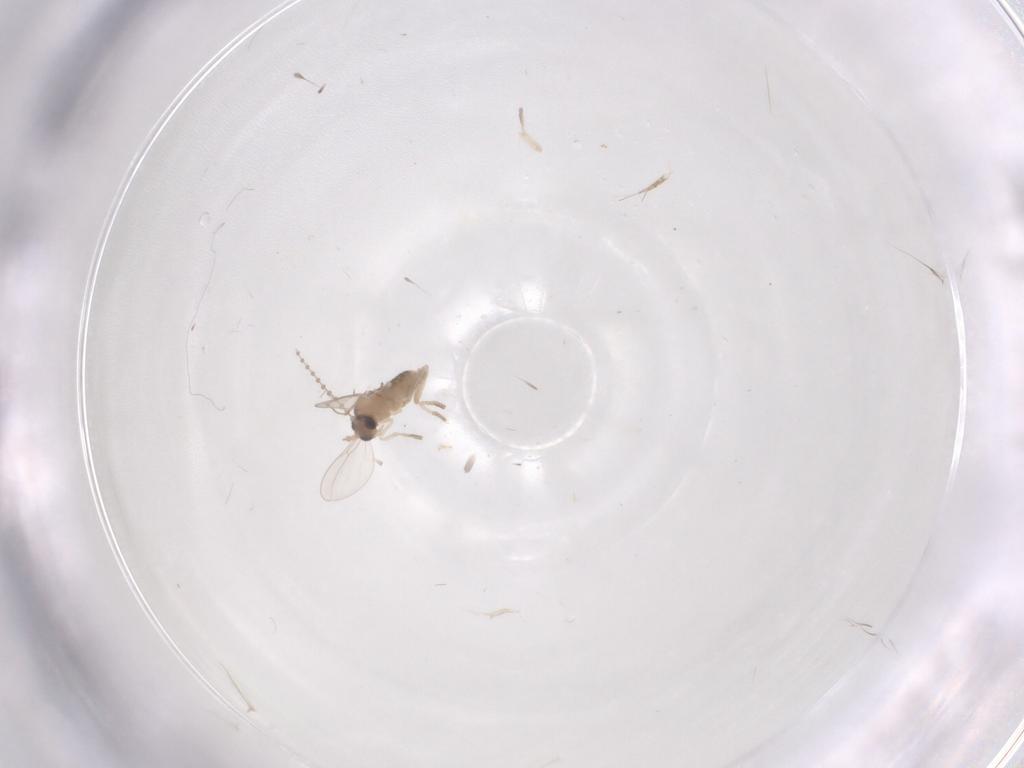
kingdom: Animalia
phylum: Arthropoda
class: Insecta
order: Diptera
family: Cecidomyiidae
